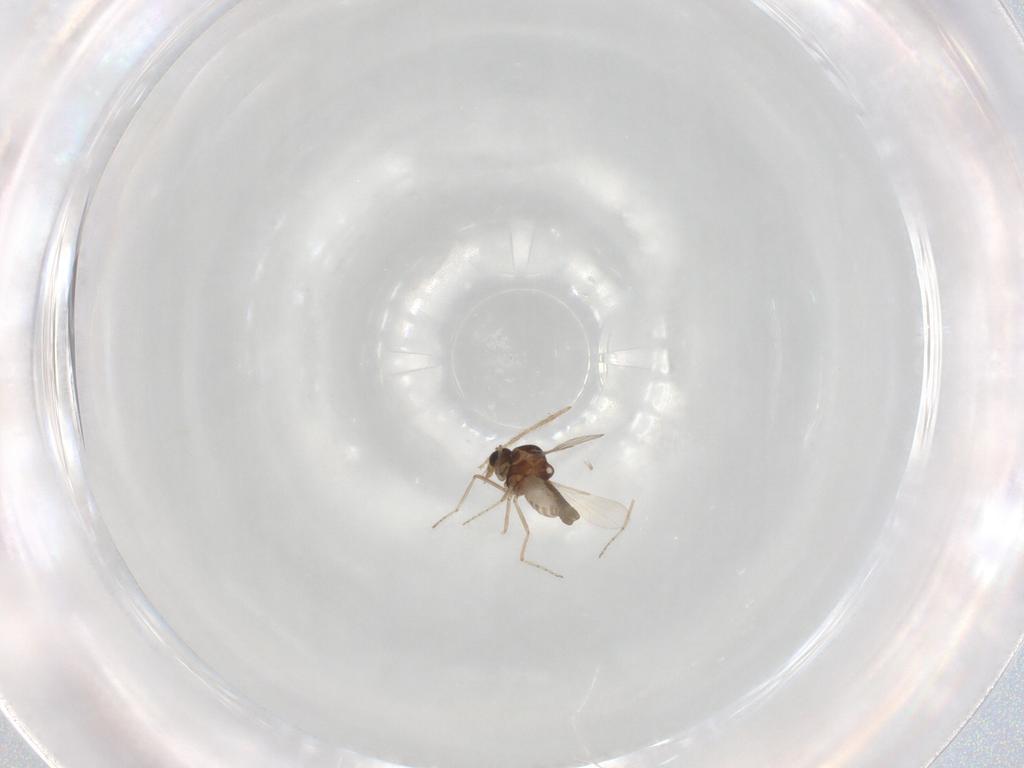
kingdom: Animalia
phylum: Arthropoda
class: Insecta
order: Diptera
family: Ceratopogonidae
